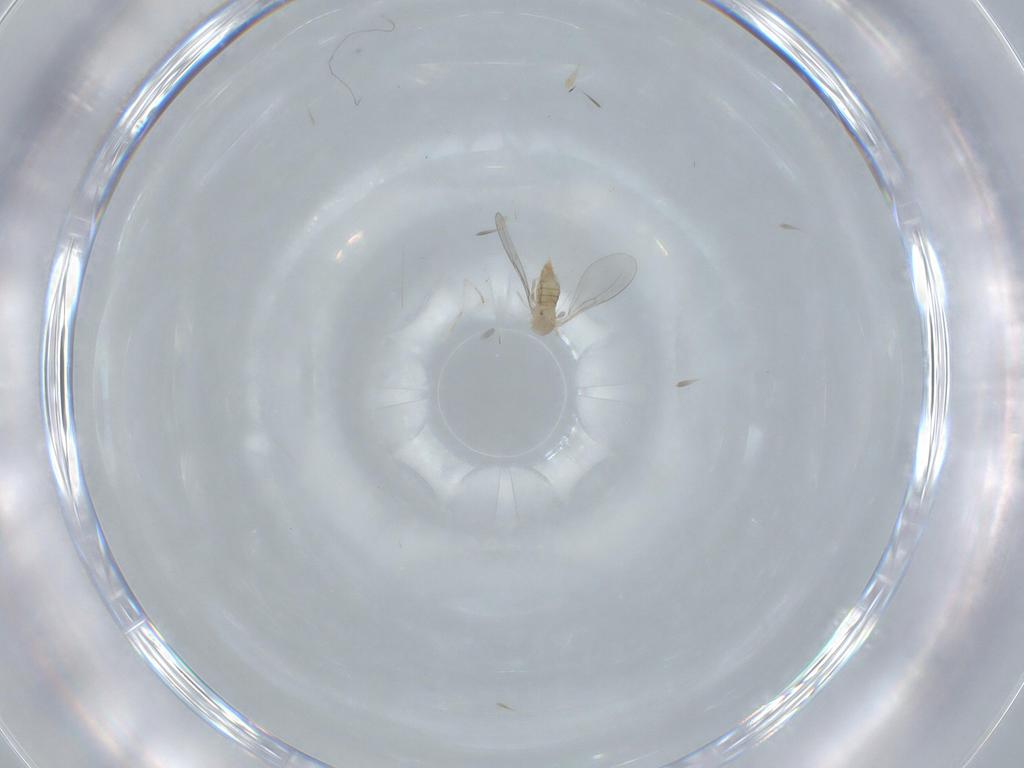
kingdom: Animalia
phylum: Arthropoda
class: Insecta
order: Diptera
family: Cecidomyiidae
